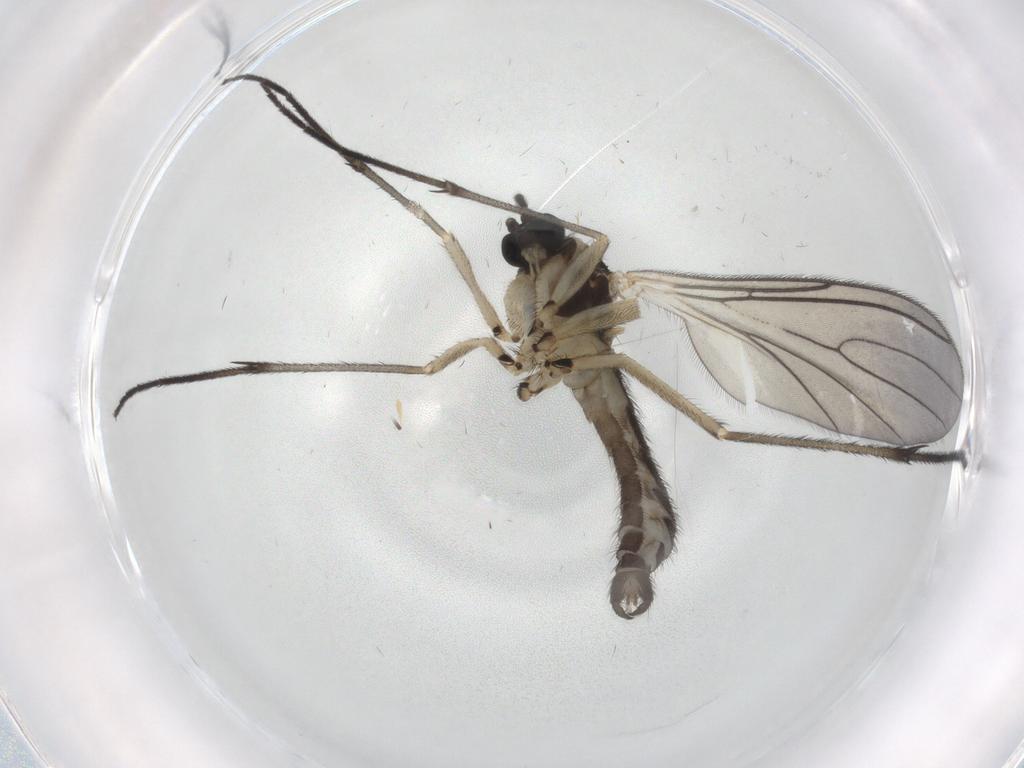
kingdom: Animalia
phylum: Arthropoda
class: Insecta
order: Diptera
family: Sciaridae
